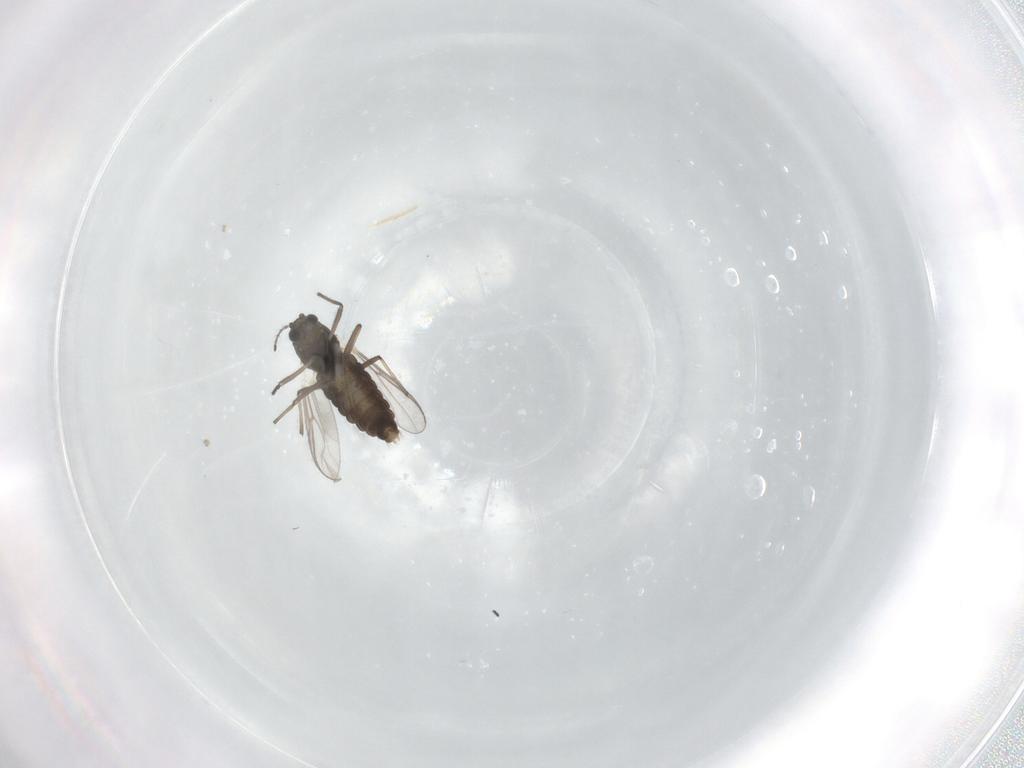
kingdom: Animalia
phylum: Arthropoda
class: Insecta
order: Diptera
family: Chironomidae
